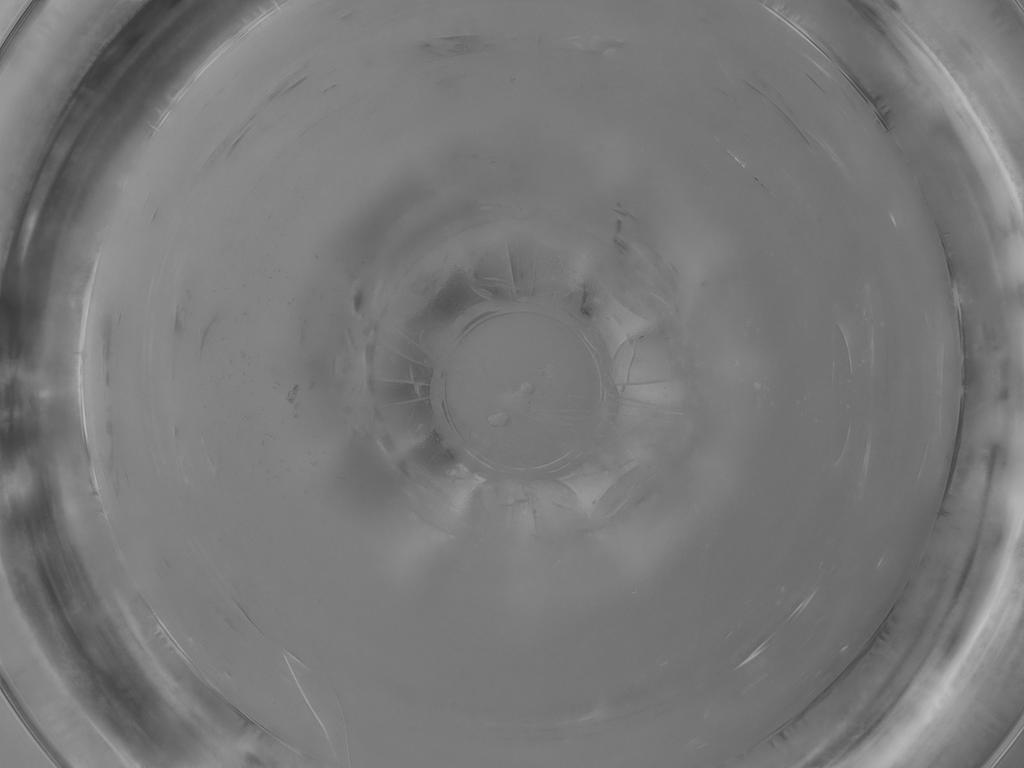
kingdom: Animalia
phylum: Arthropoda
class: Insecta
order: Diptera
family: Cecidomyiidae
